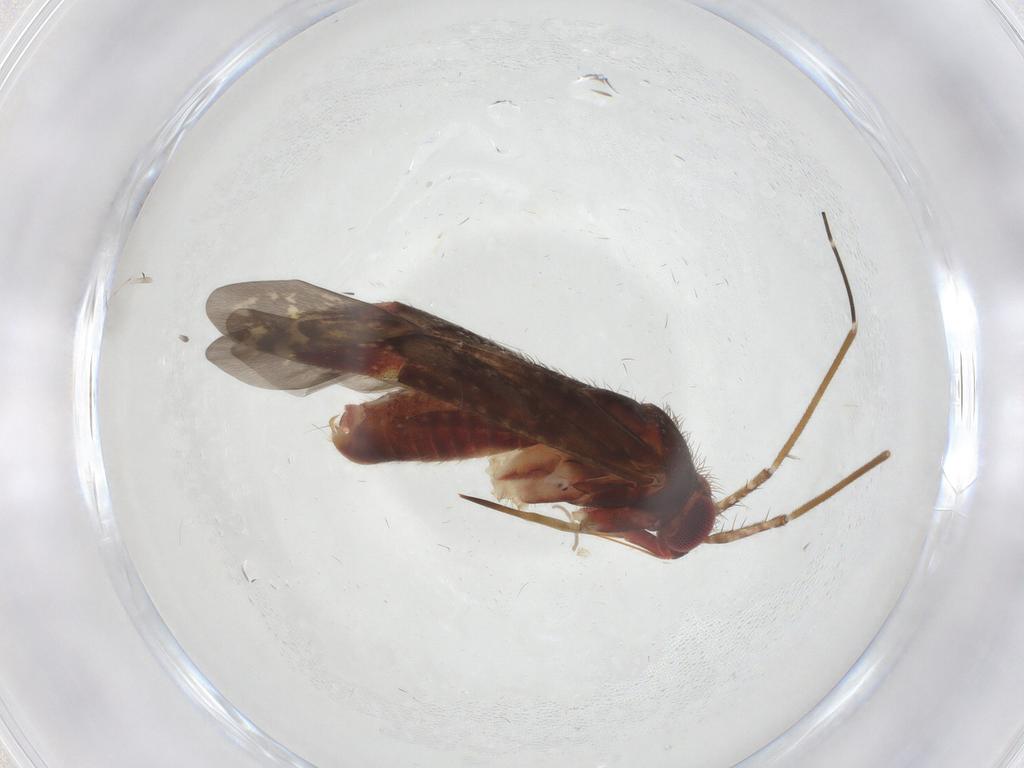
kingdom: Animalia
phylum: Arthropoda
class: Insecta
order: Hemiptera
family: Miridae
